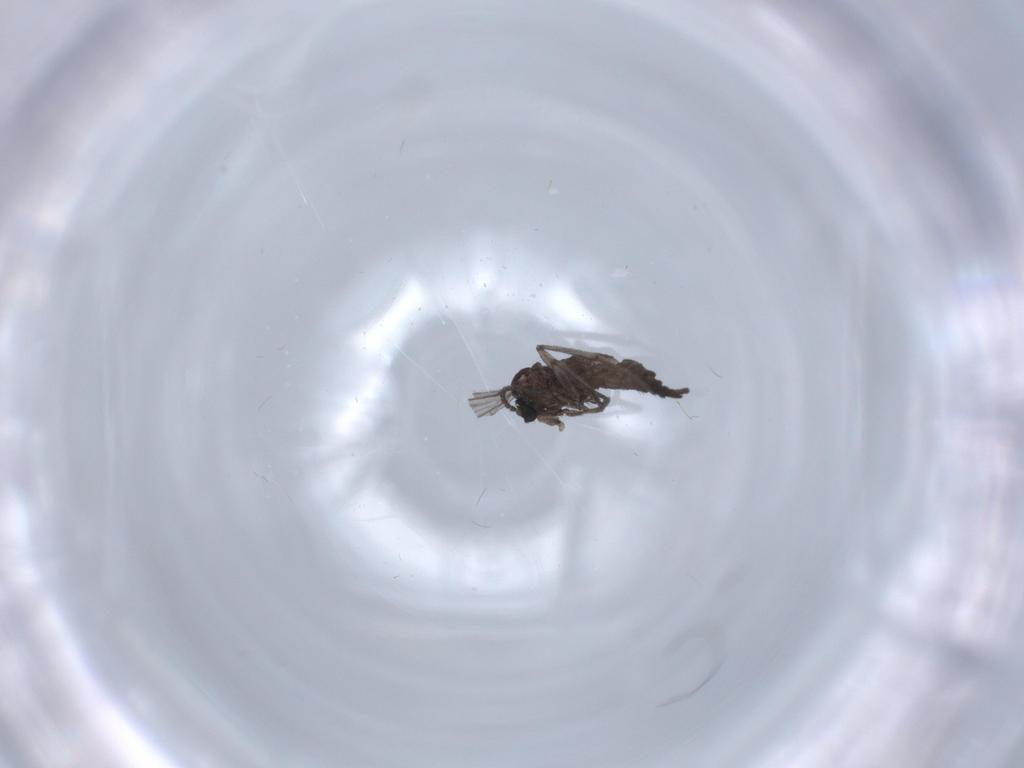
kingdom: Animalia
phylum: Arthropoda
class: Insecta
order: Diptera
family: Sciaridae
